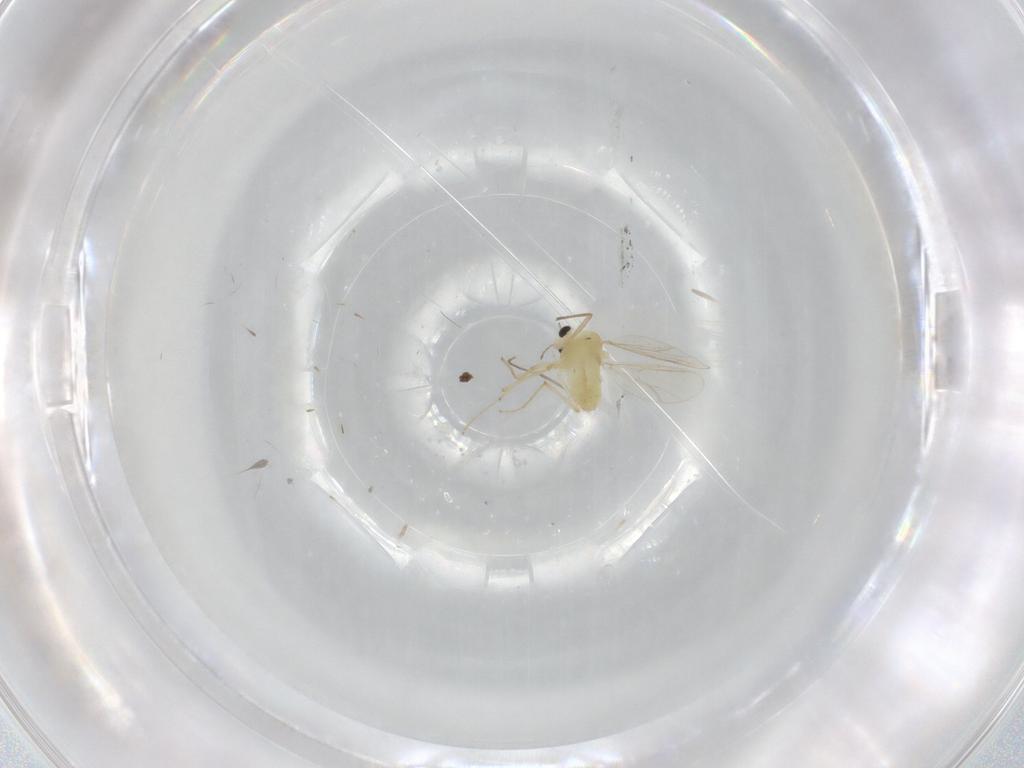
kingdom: Animalia
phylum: Arthropoda
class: Insecta
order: Diptera
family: Chironomidae
